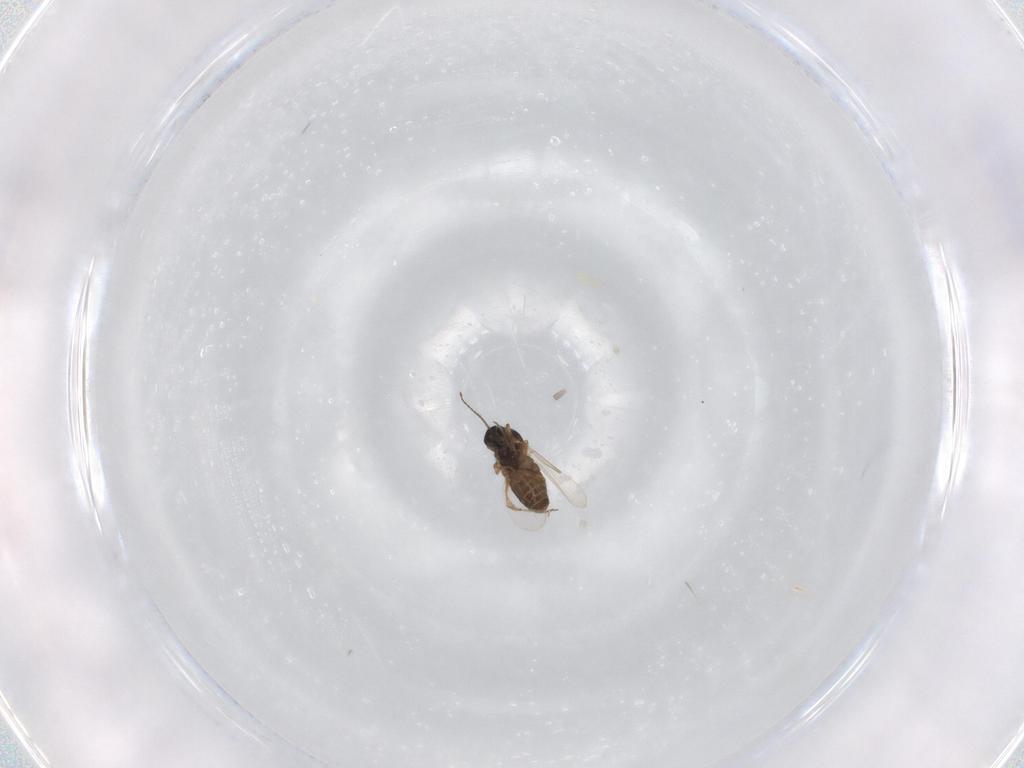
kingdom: Animalia
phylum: Arthropoda
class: Insecta
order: Diptera
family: Ceratopogonidae
